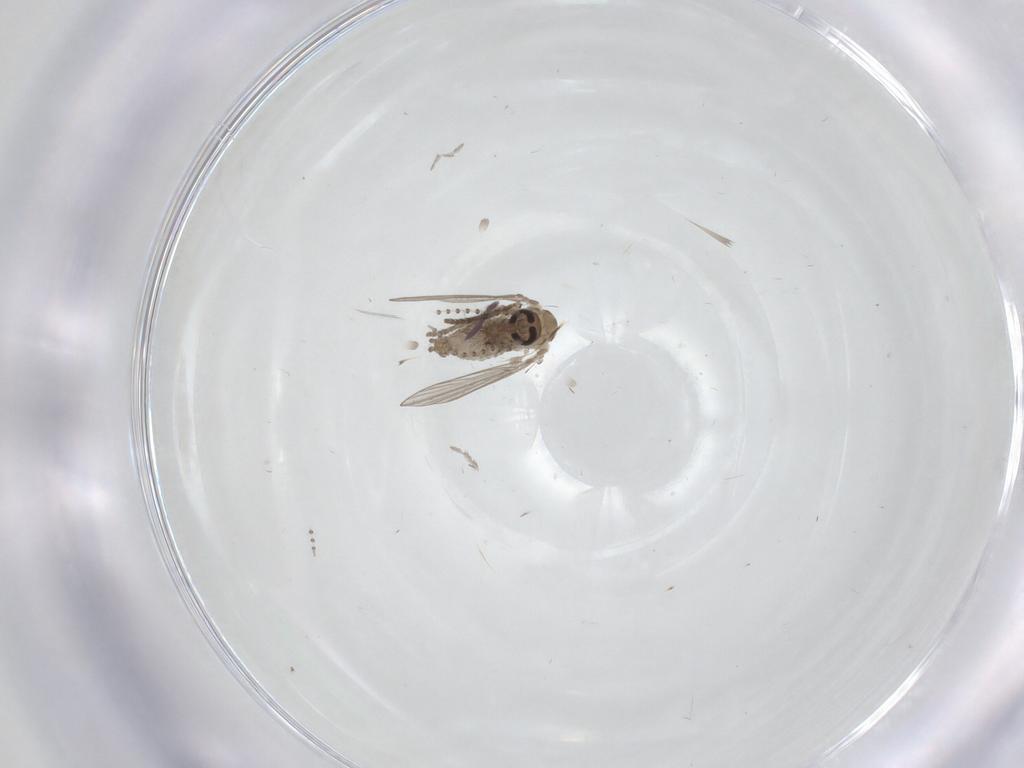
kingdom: Animalia
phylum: Arthropoda
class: Insecta
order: Diptera
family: Psychodidae
